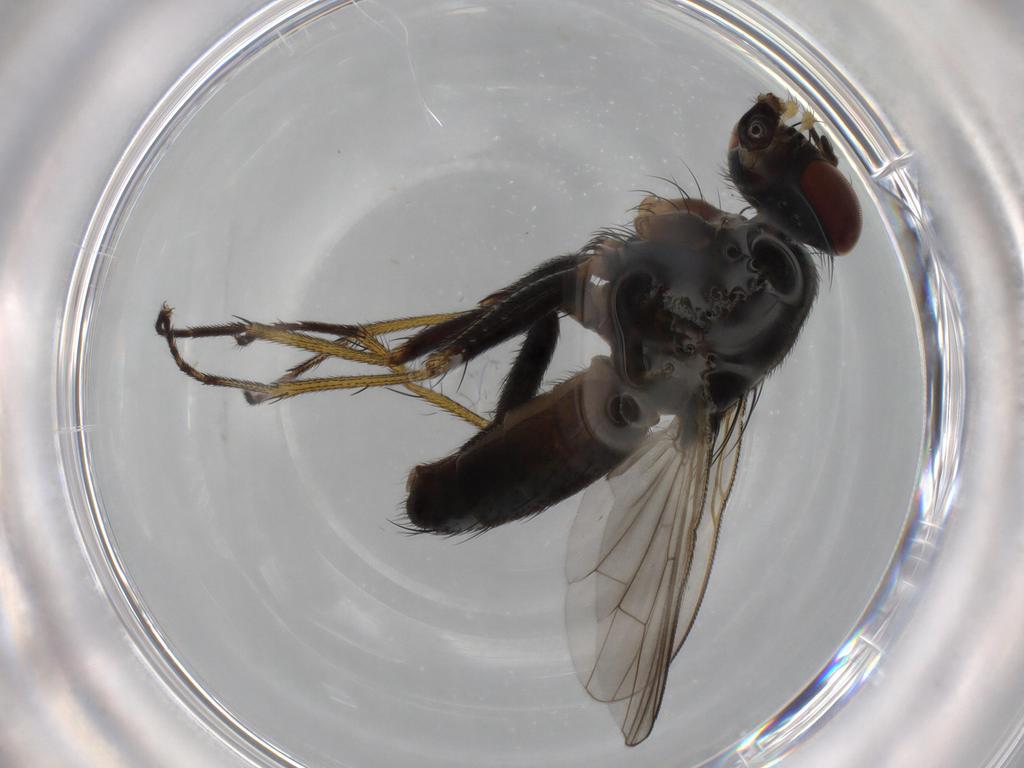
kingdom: Animalia
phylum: Arthropoda
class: Insecta
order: Diptera
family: Muscidae
